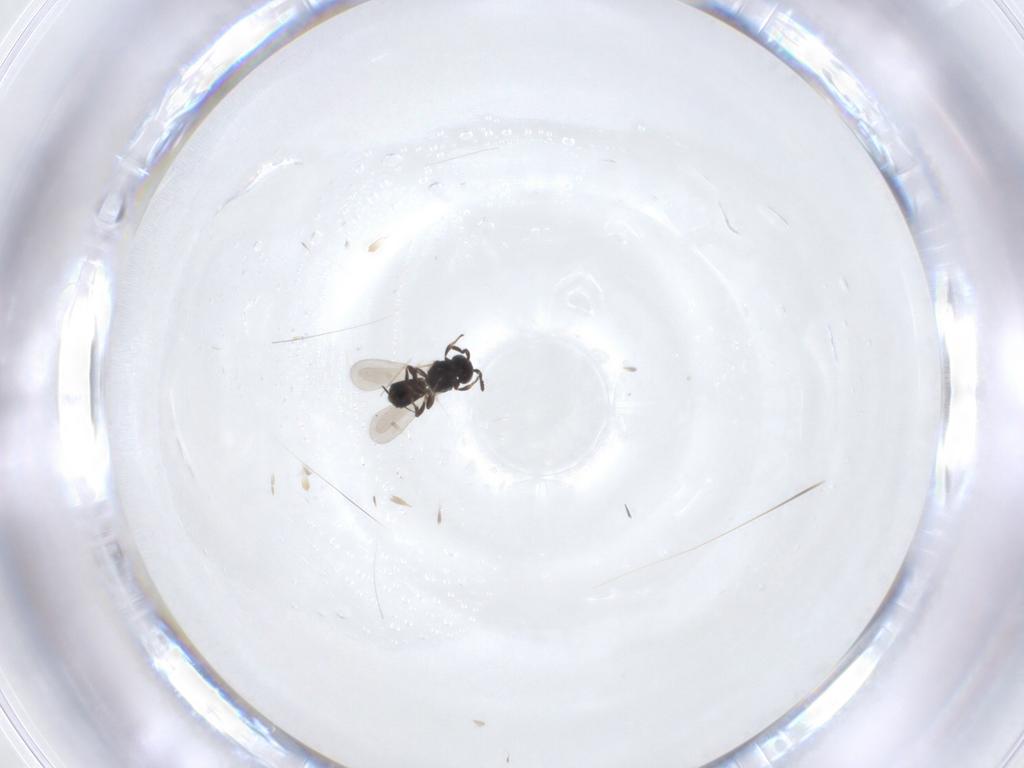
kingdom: Animalia
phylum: Arthropoda
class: Insecta
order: Hymenoptera
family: Platygastridae
